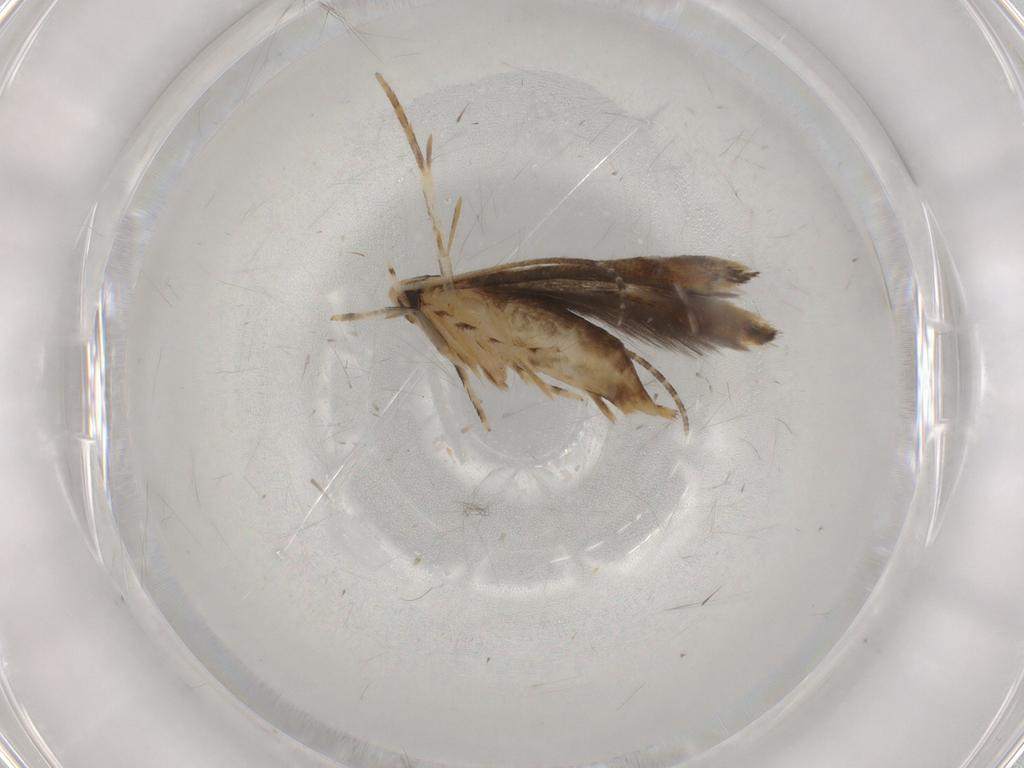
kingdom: Animalia
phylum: Arthropoda
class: Insecta
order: Lepidoptera
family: Momphidae
